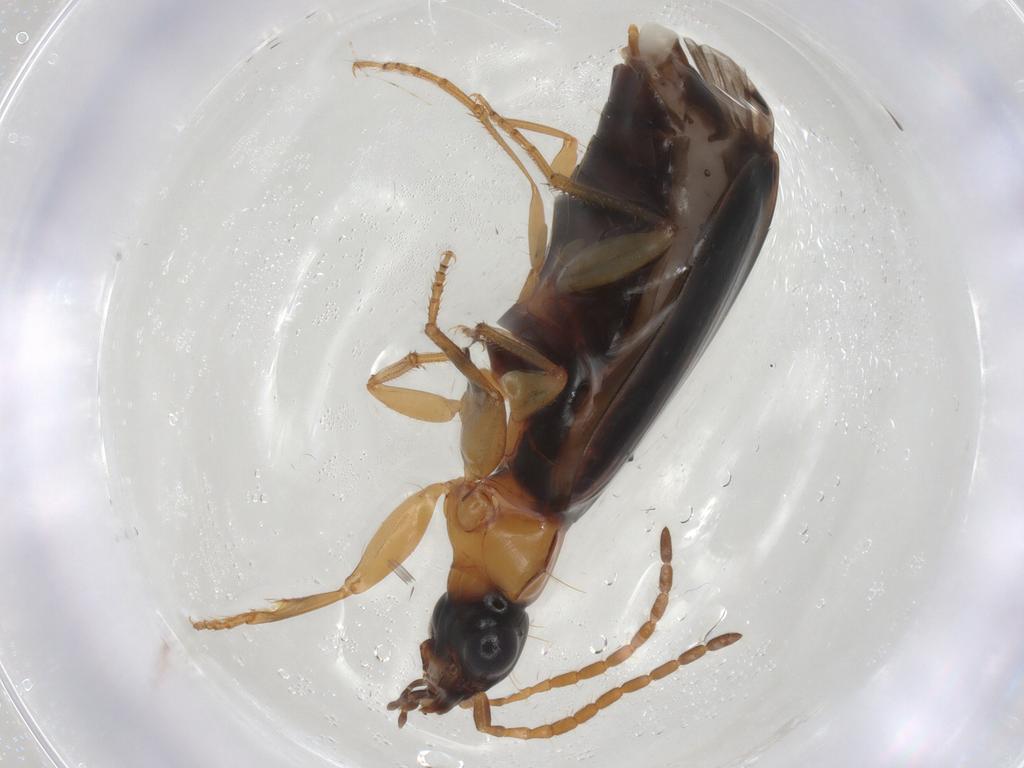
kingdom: Animalia
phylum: Arthropoda
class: Insecta
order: Coleoptera
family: Carabidae
